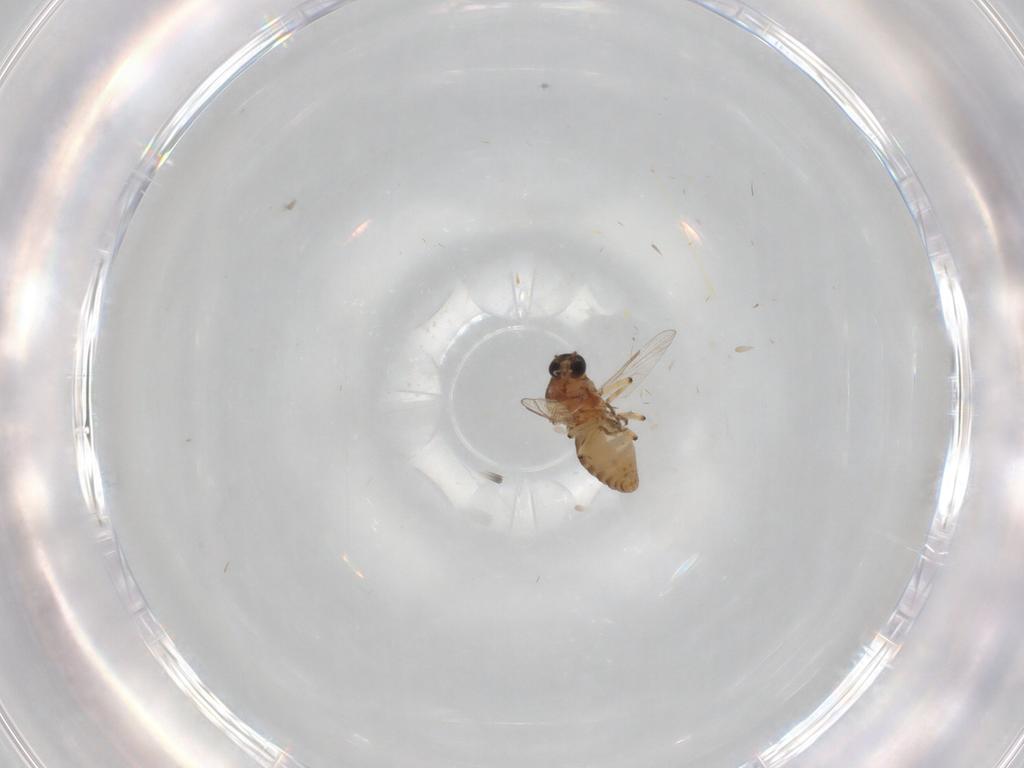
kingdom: Animalia
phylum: Arthropoda
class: Insecta
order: Diptera
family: Ceratopogonidae
